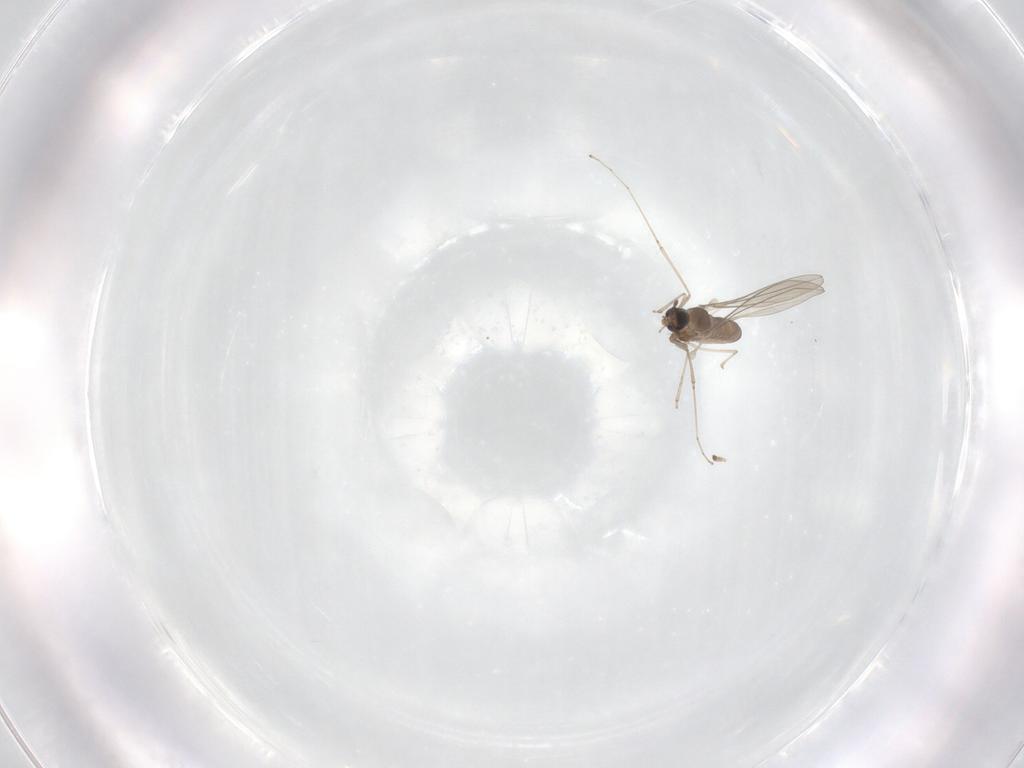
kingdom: Animalia
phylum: Arthropoda
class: Insecta
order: Diptera
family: Cecidomyiidae
